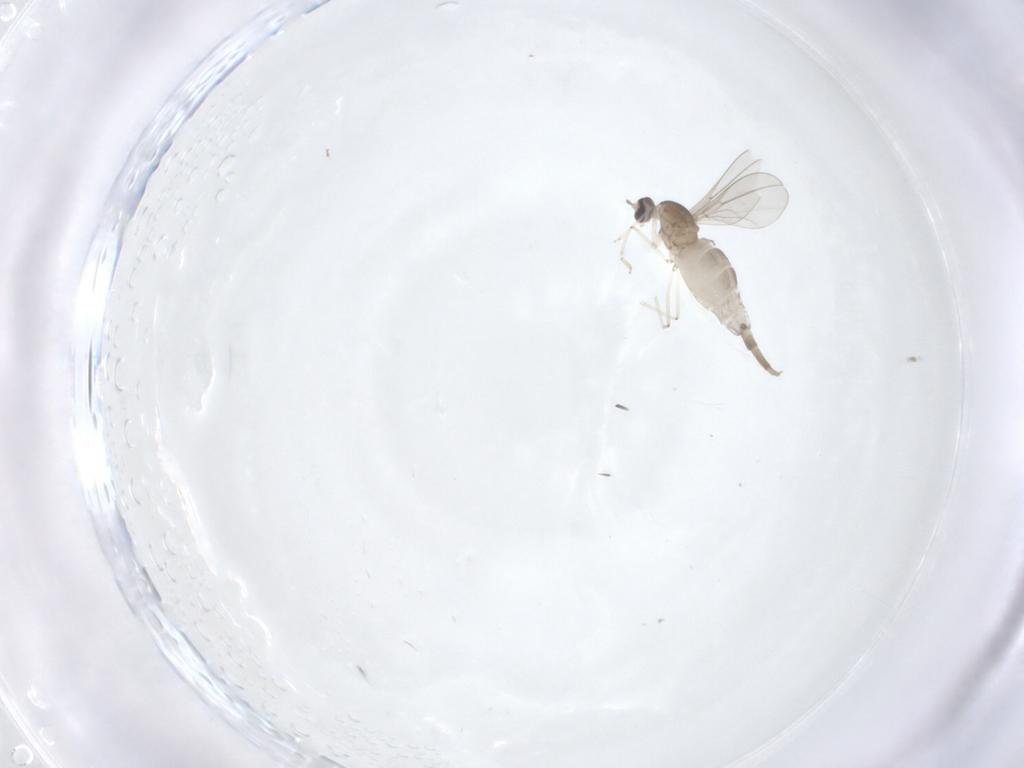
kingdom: Animalia
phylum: Arthropoda
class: Insecta
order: Diptera
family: Cecidomyiidae
